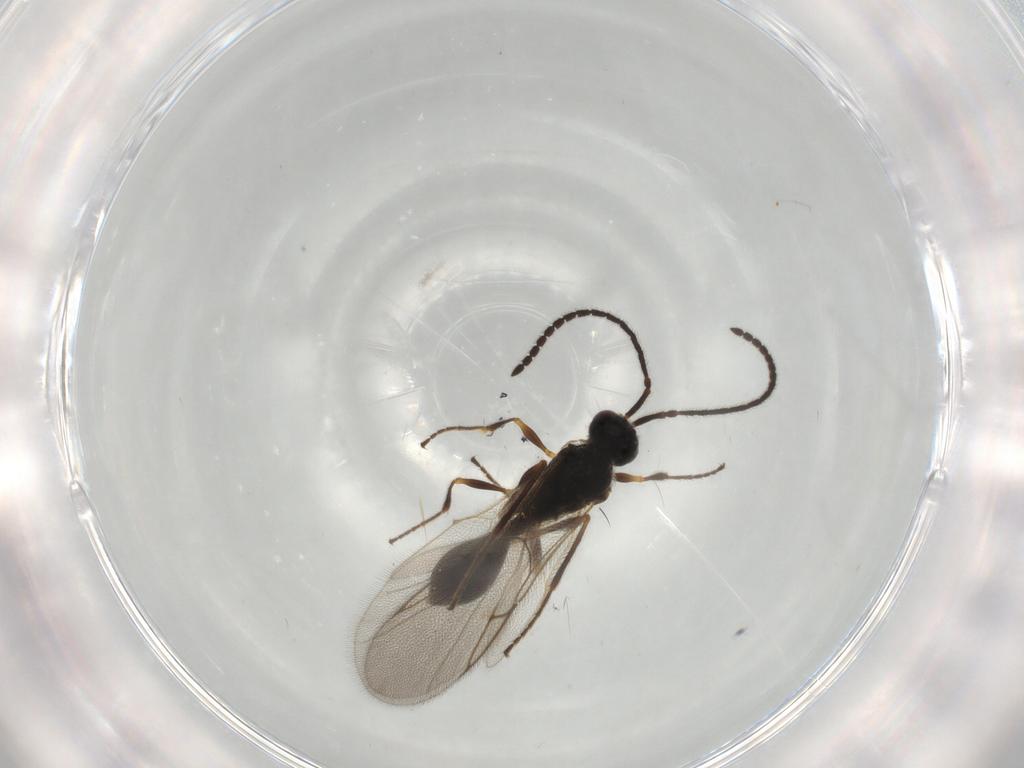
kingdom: Animalia
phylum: Arthropoda
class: Insecta
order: Hymenoptera
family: Diapriidae
